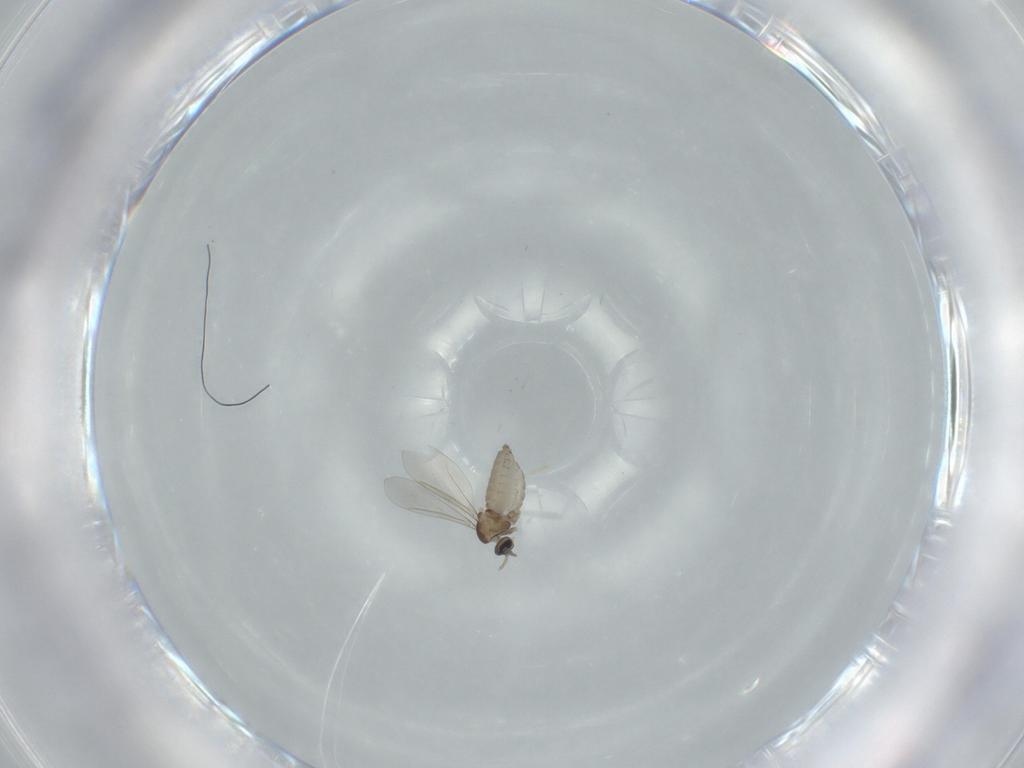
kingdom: Animalia
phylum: Arthropoda
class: Insecta
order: Diptera
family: Cecidomyiidae
